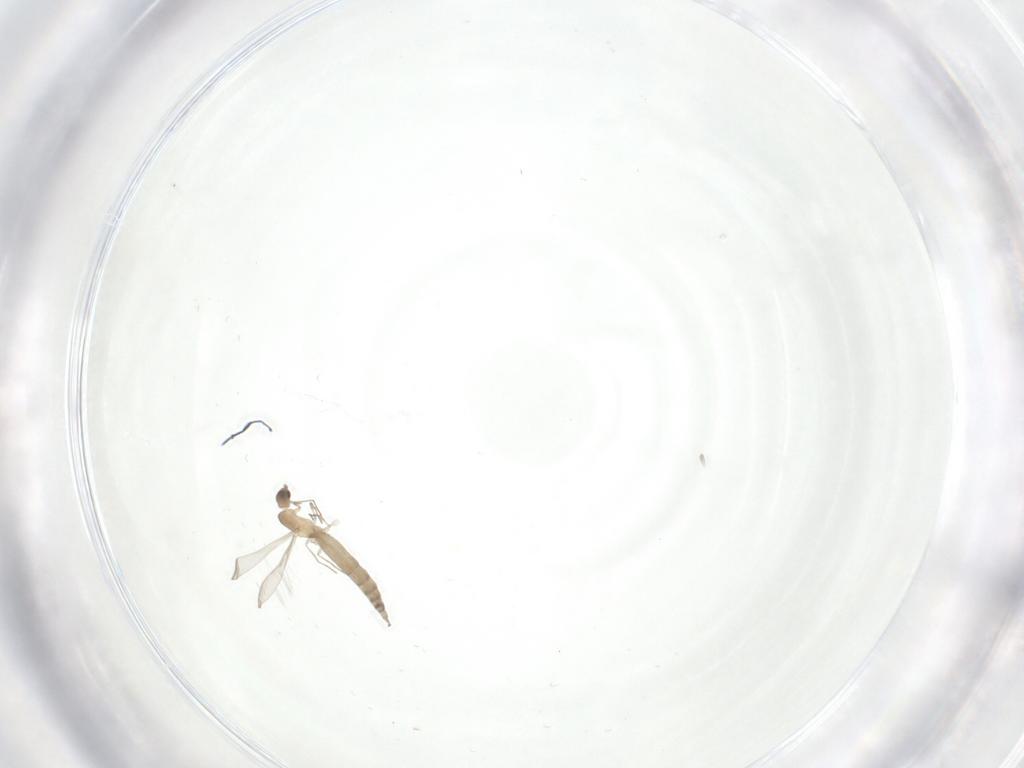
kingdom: Animalia
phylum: Arthropoda
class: Insecta
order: Diptera
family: Cecidomyiidae
